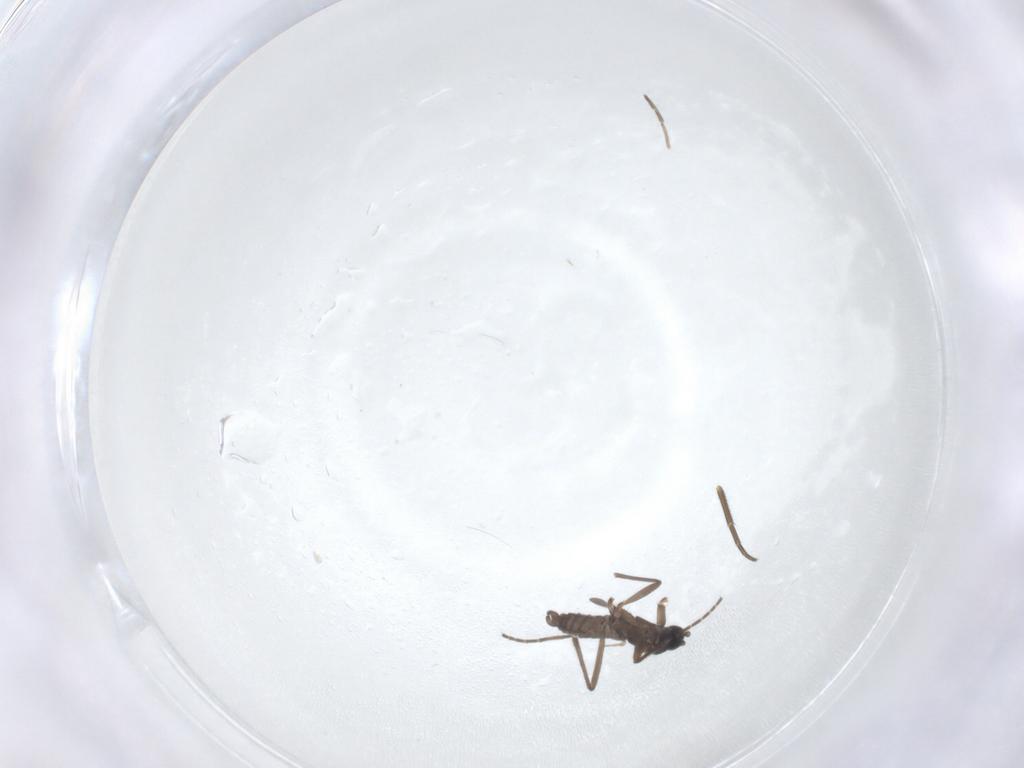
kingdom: Animalia
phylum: Arthropoda
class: Insecta
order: Diptera
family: Sciaridae
